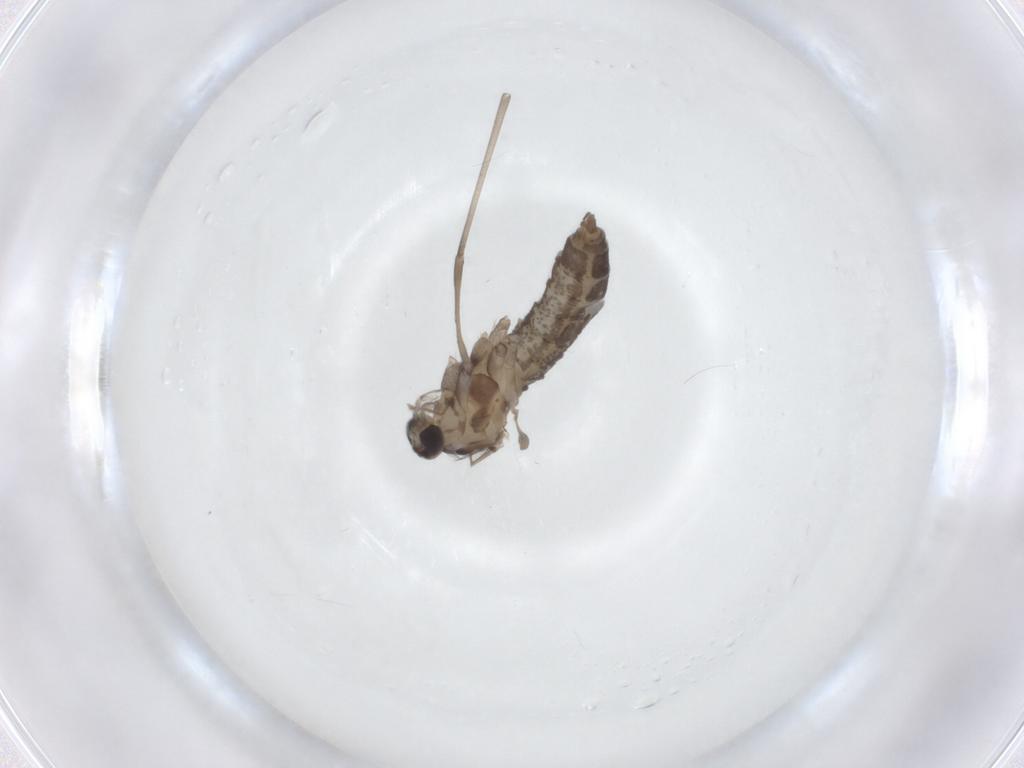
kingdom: Animalia
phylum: Arthropoda
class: Insecta
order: Diptera
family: Cecidomyiidae
